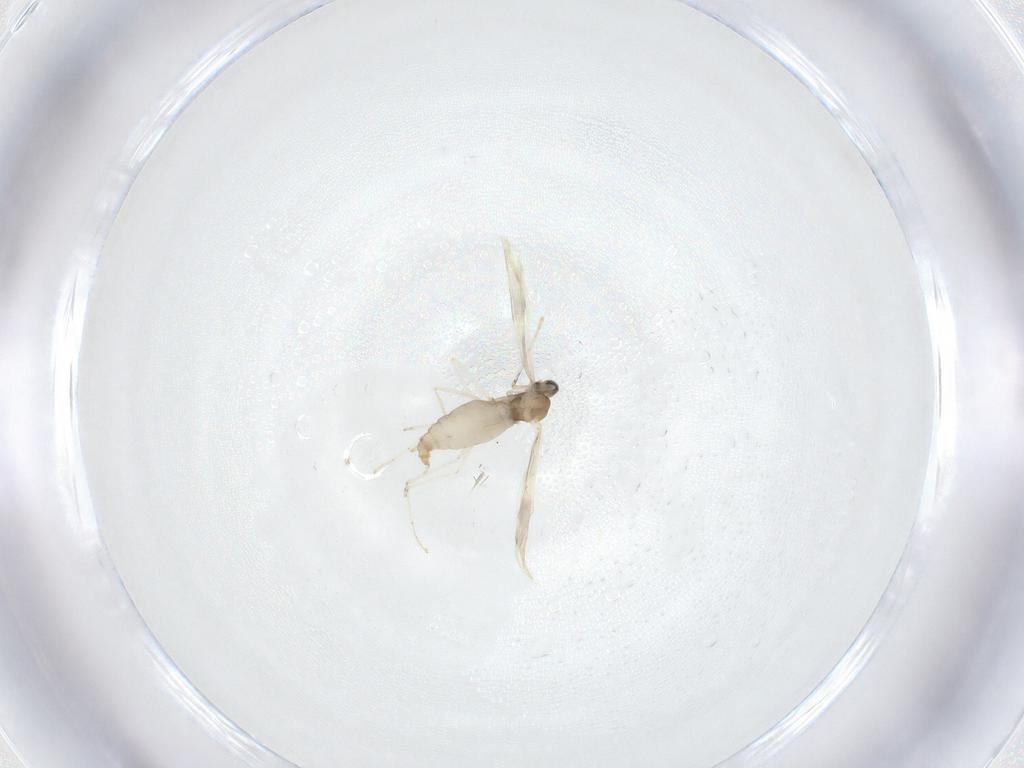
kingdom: Animalia
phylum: Arthropoda
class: Insecta
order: Diptera
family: Cecidomyiidae
